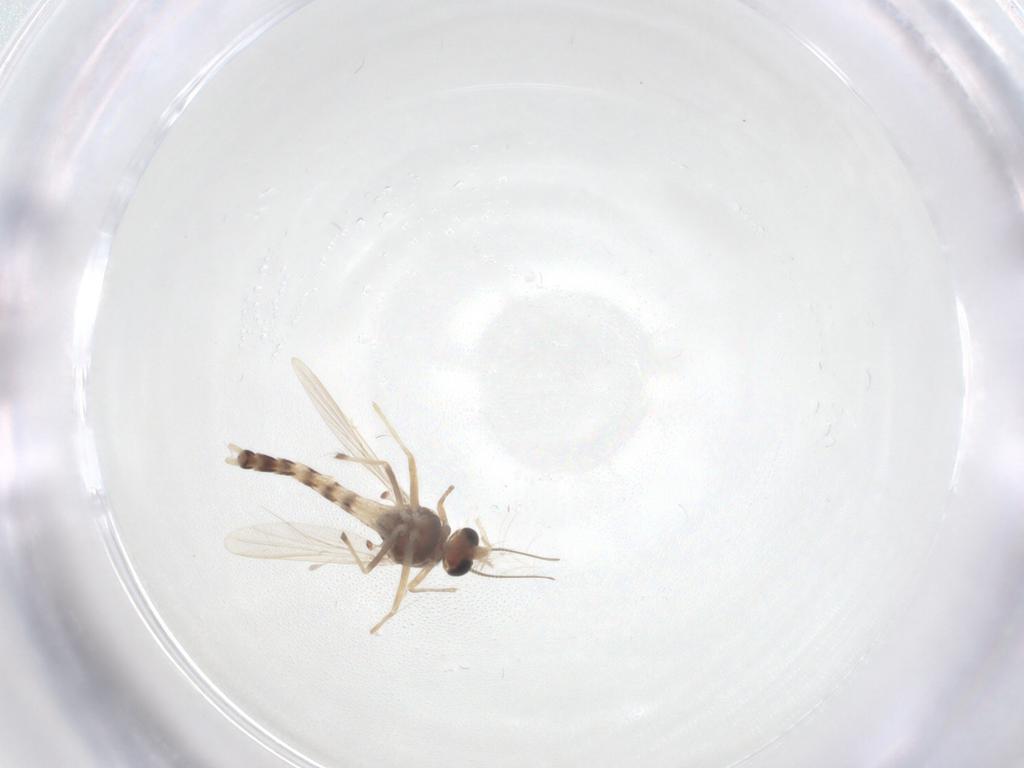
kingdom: Animalia
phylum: Arthropoda
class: Insecta
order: Diptera
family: Chironomidae
